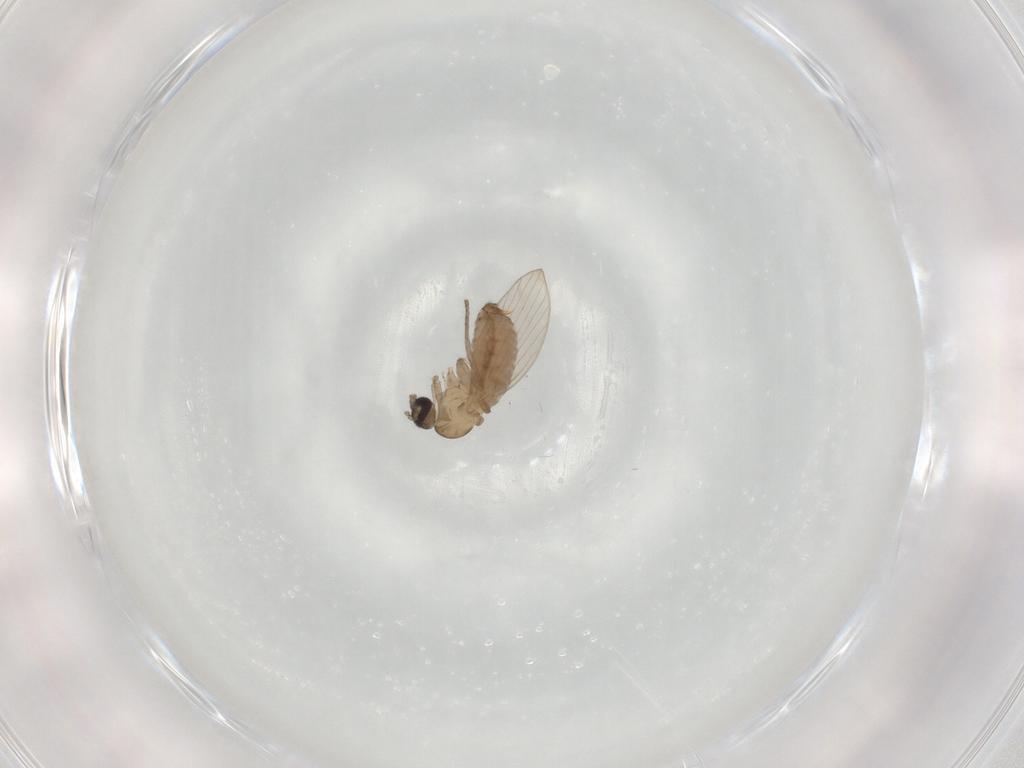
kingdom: Animalia
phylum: Arthropoda
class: Insecta
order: Diptera
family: Psychodidae
